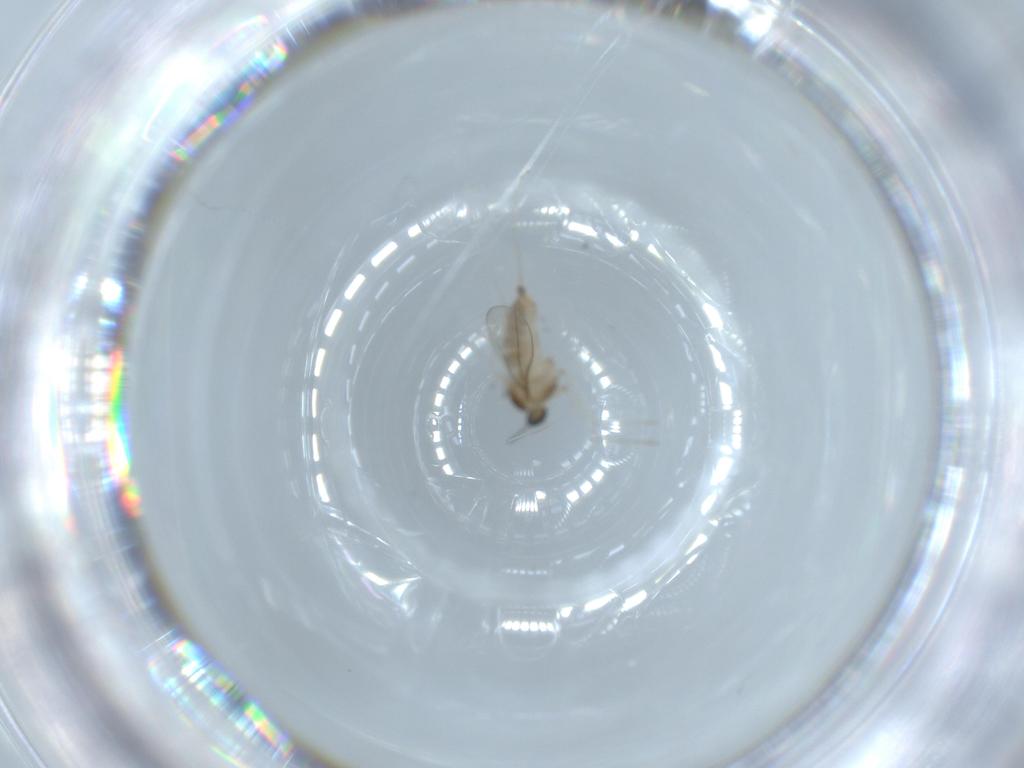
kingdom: Animalia
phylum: Arthropoda
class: Insecta
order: Diptera
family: Cecidomyiidae
